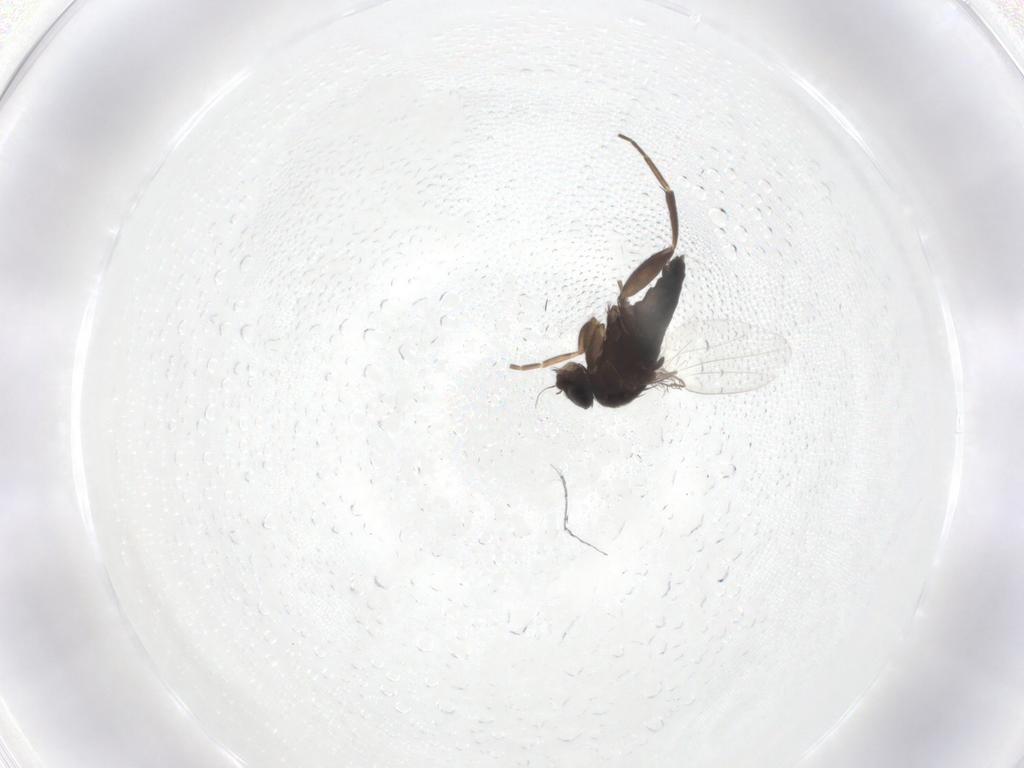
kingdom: Animalia
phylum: Arthropoda
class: Insecta
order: Diptera
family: Phoridae
